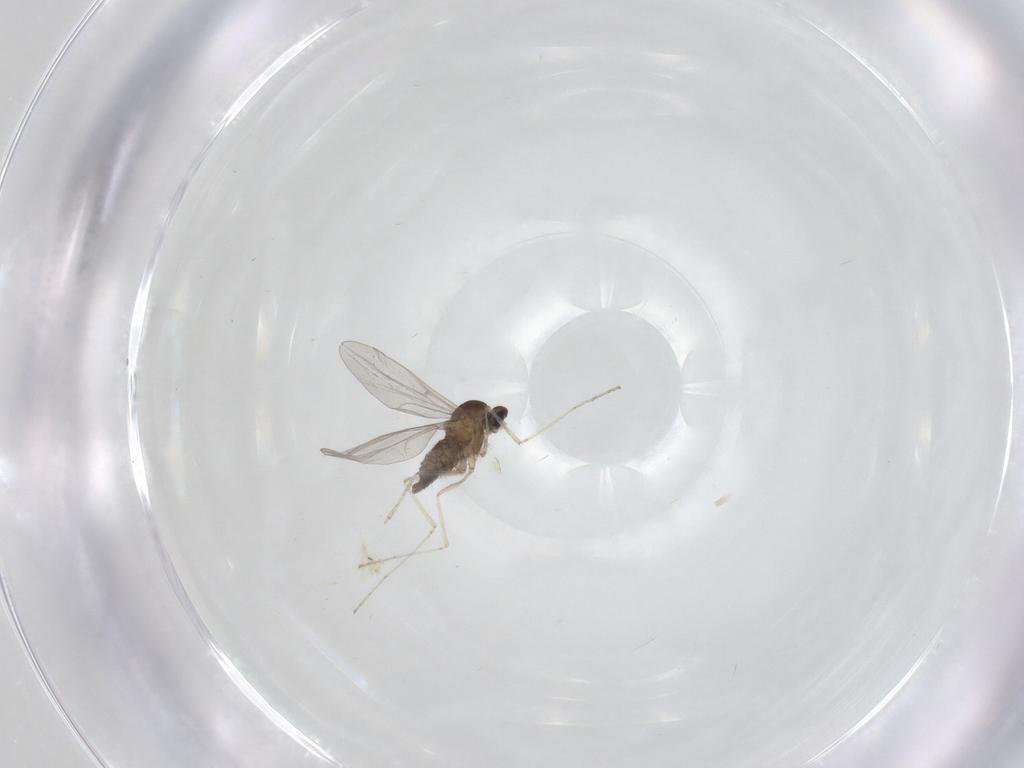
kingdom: Animalia
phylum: Arthropoda
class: Insecta
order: Diptera
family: Cecidomyiidae
